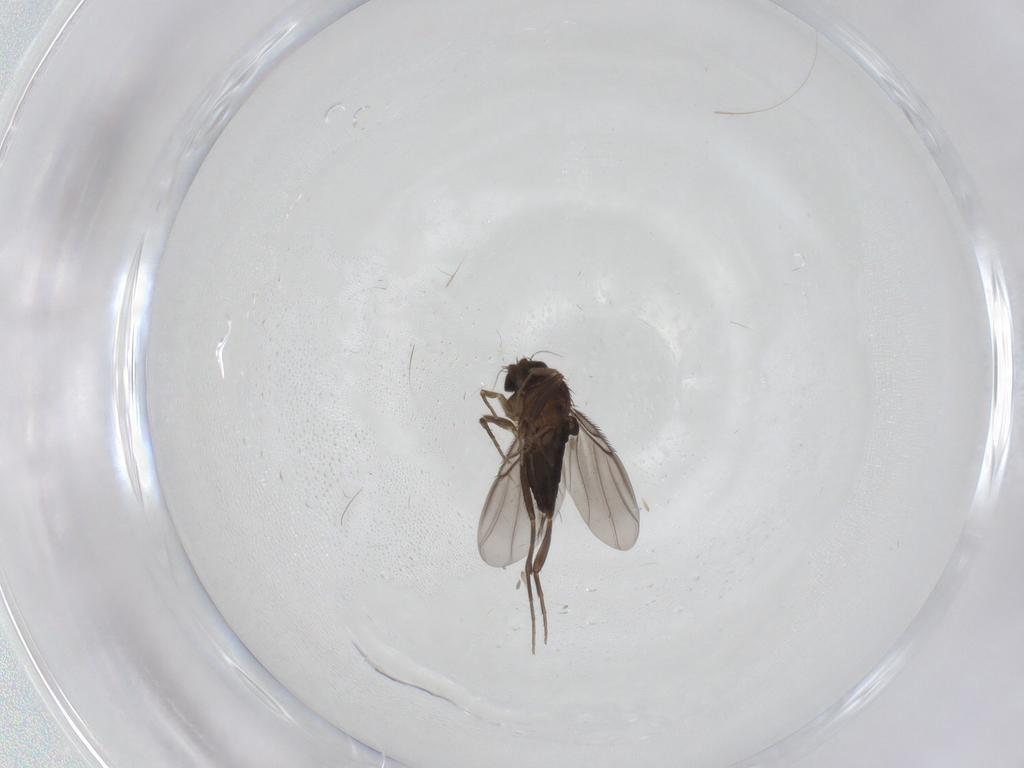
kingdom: Animalia
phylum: Arthropoda
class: Insecta
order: Diptera
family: Phoridae
